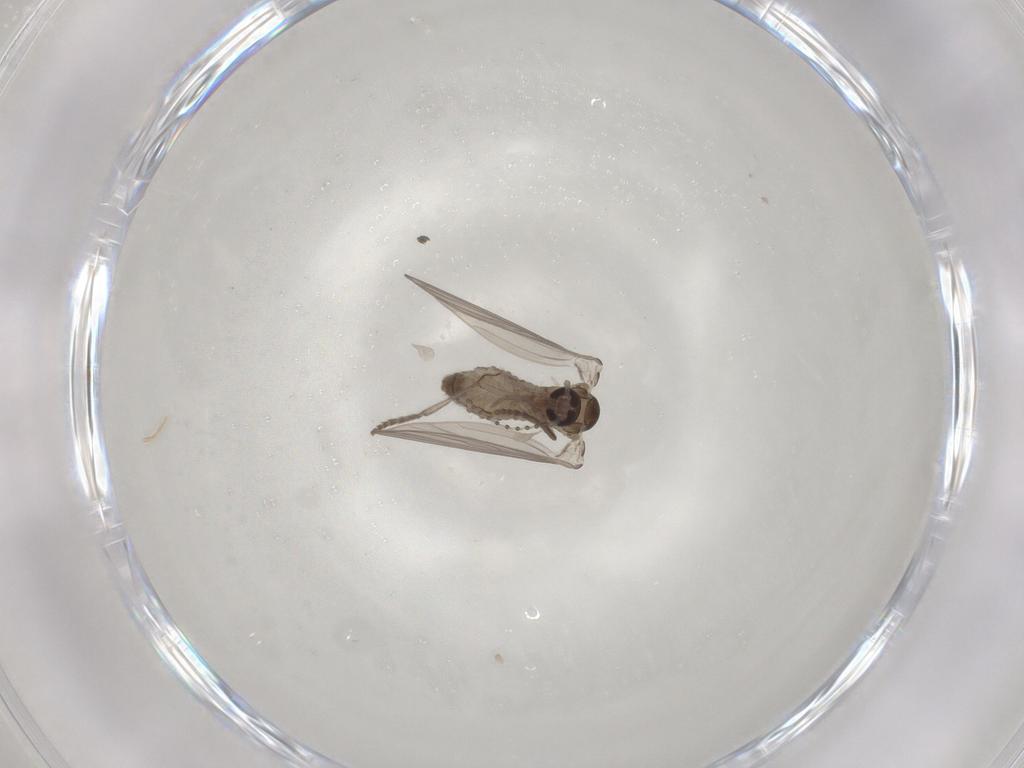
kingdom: Animalia
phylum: Arthropoda
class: Insecta
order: Diptera
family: Psychodidae
